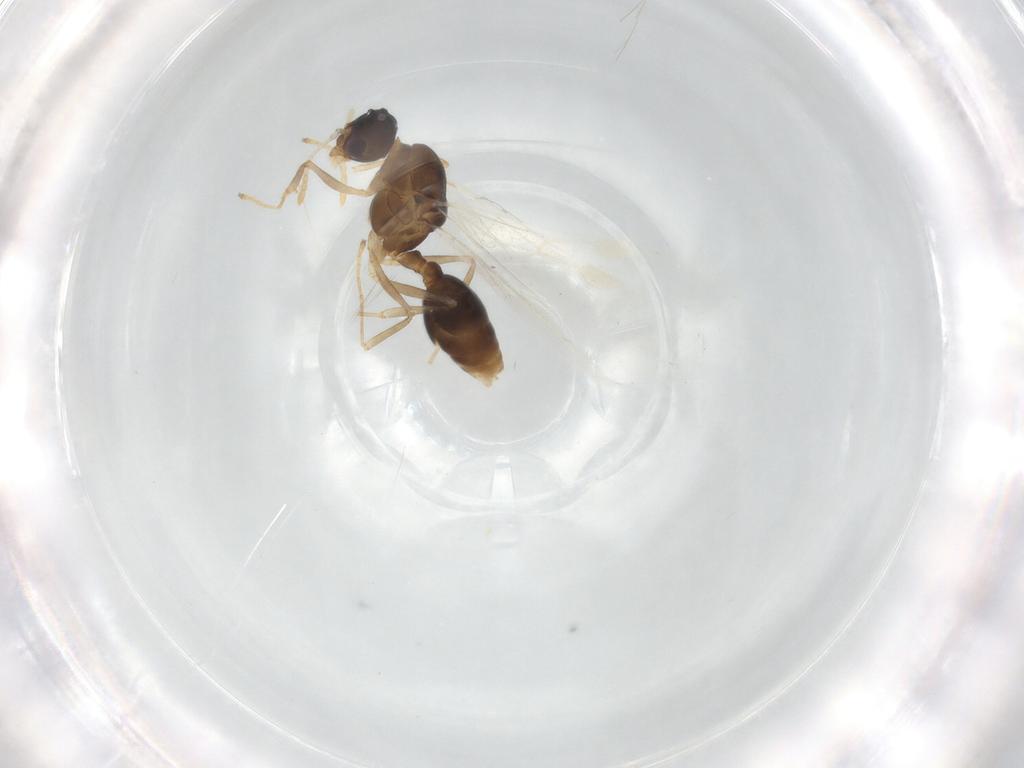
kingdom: Animalia
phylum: Arthropoda
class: Insecta
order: Hymenoptera
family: Formicidae
